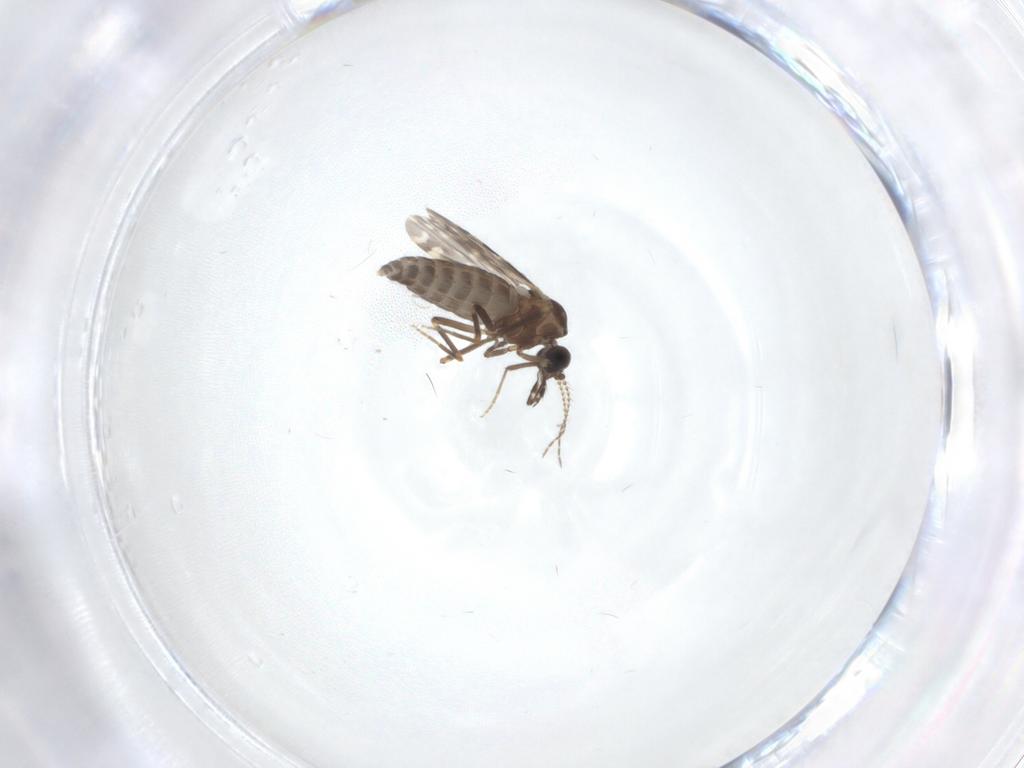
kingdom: Animalia
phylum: Arthropoda
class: Insecta
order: Diptera
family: Ceratopogonidae
